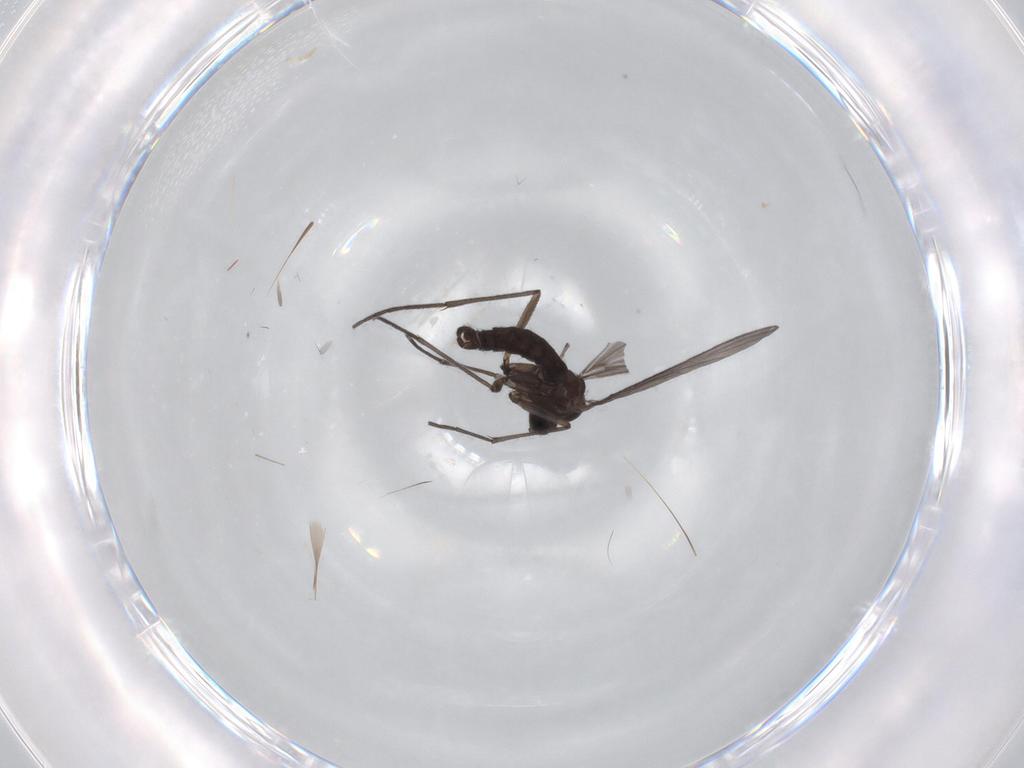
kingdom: Animalia
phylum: Arthropoda
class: Insecta
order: Diptera
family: Sciaridae
